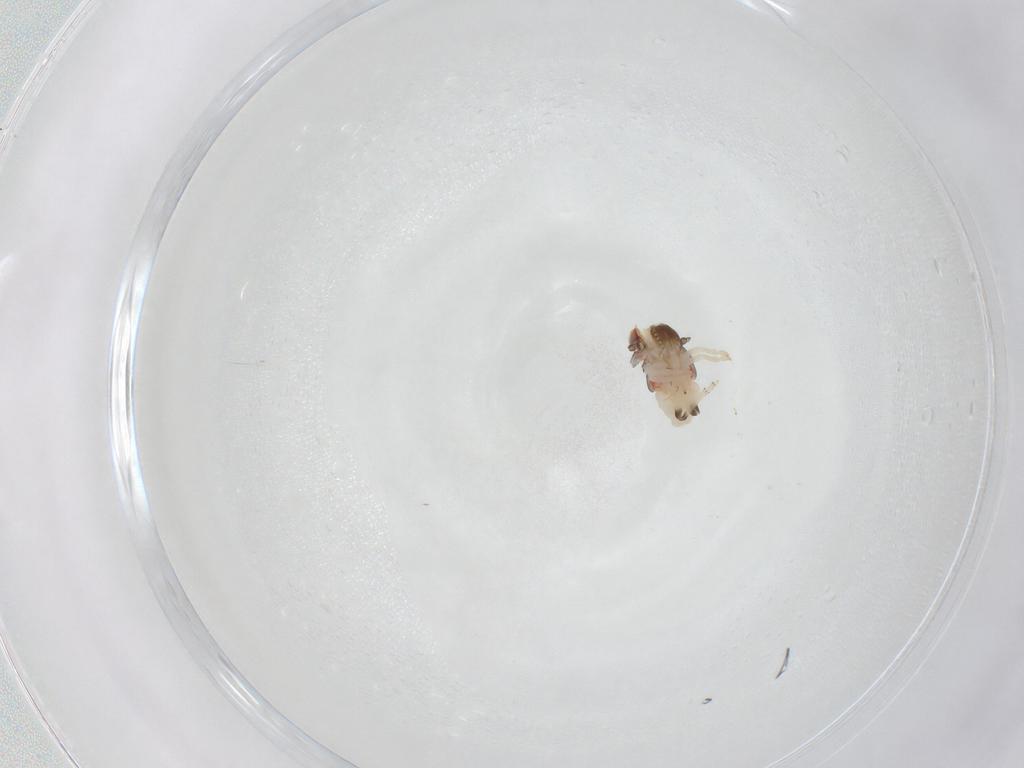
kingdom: Animalia
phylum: Arthropoda
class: Insecta
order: Hemiptera
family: Nogodinidae
